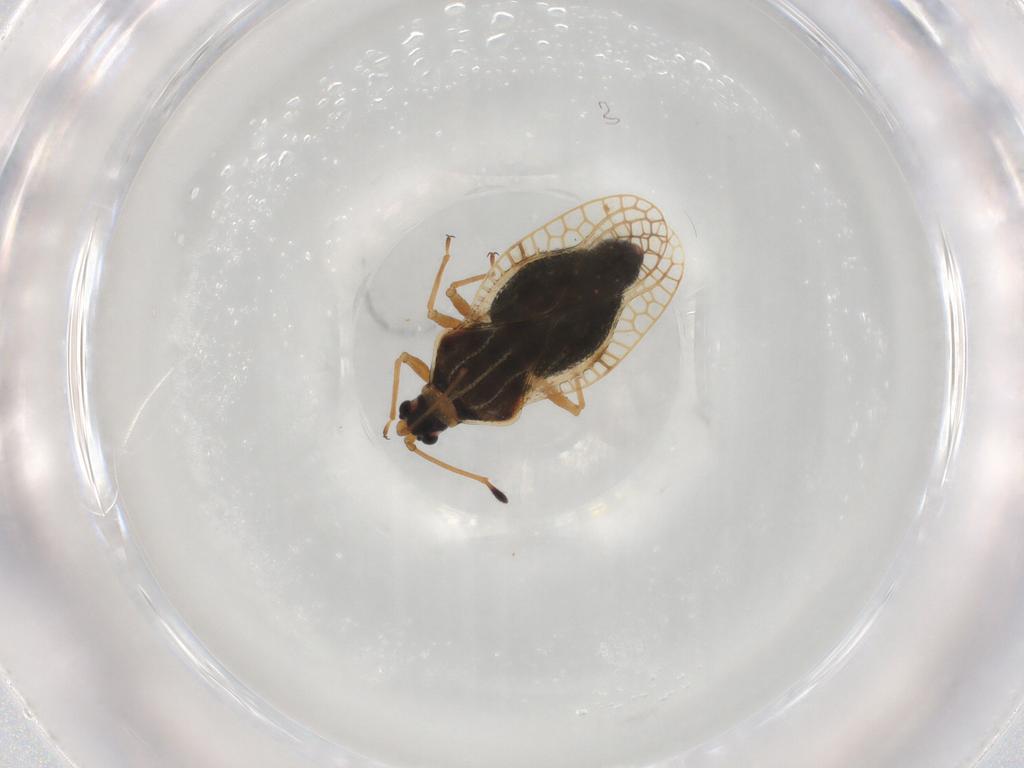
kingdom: Animalia
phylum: Arthropoda
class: Insecta
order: Hemiptera
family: Tingidae
